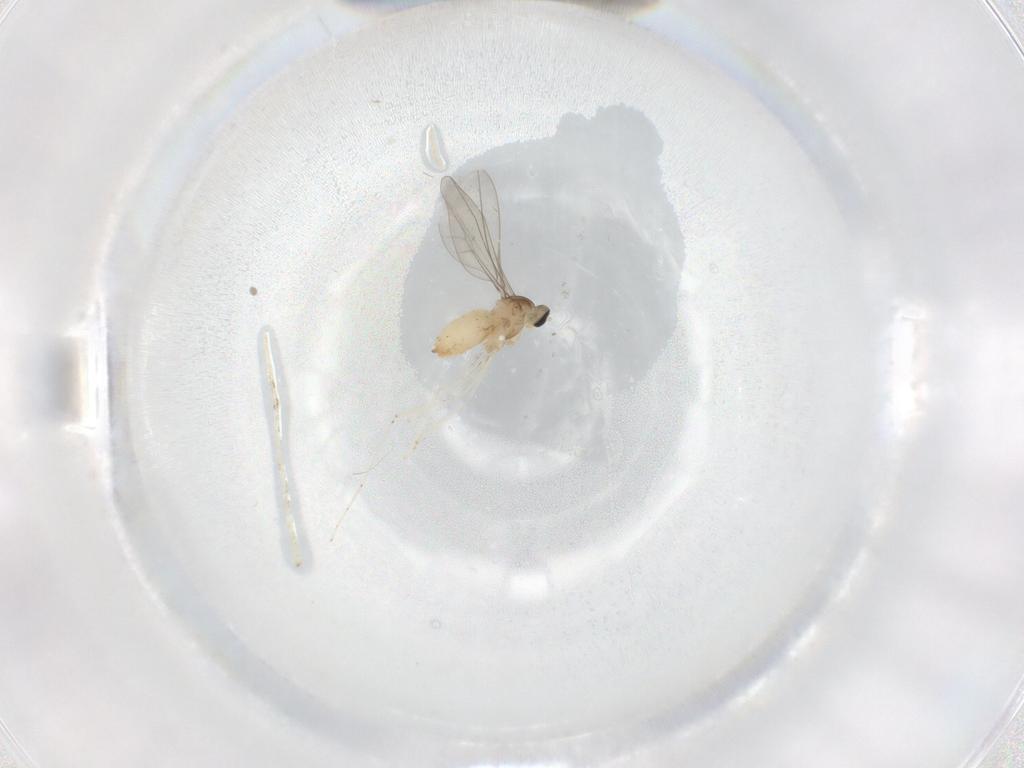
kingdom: Animalia
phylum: Arthropoda
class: Insecta
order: Diptera
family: Cecidomyiidae
